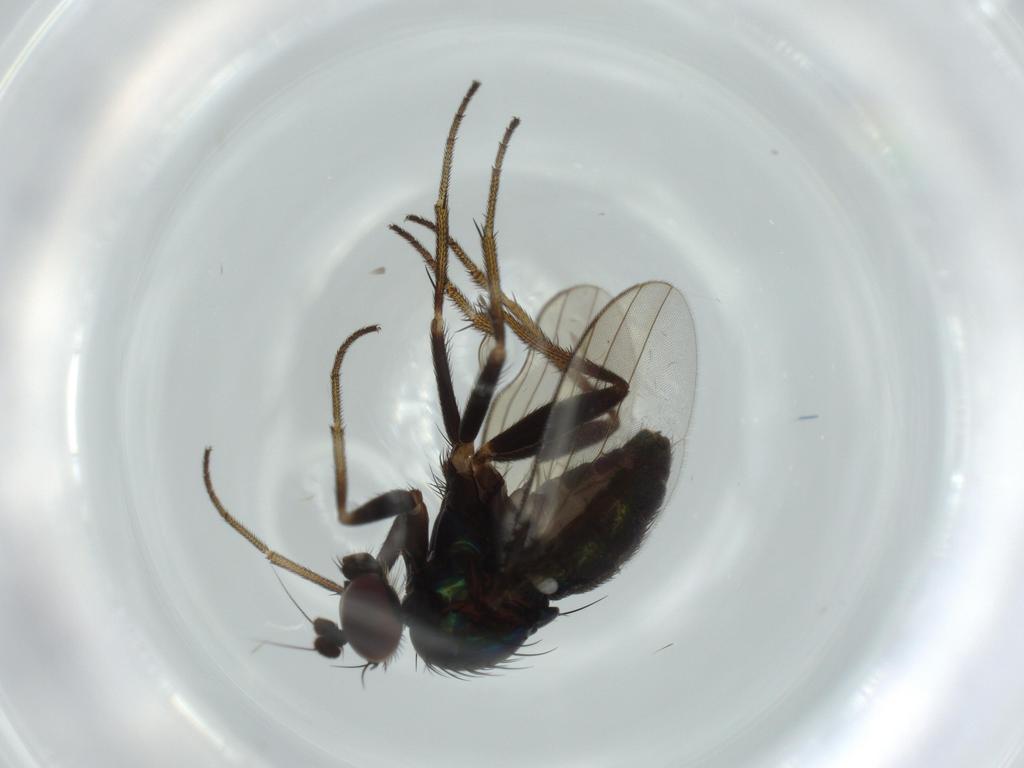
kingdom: Animalia
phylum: Arthropoda
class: Insecta
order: Diptera
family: Dolichopodidae
